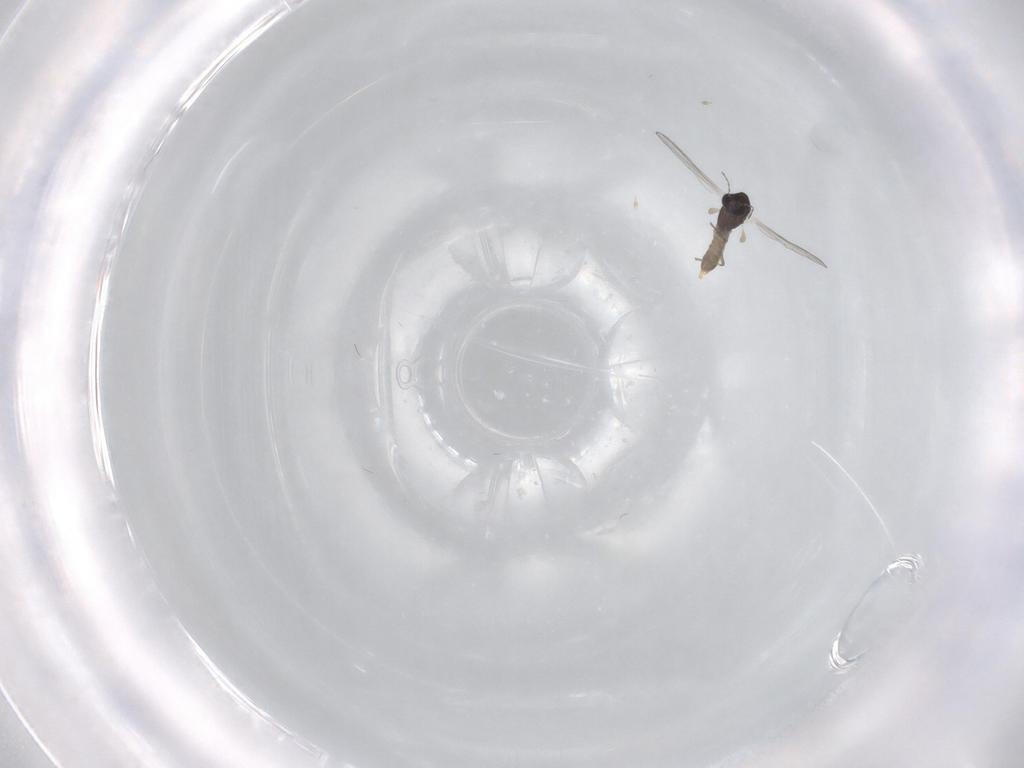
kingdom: Animalia
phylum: Arthropoda
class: Insecta
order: Diptera
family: Chironomidae
